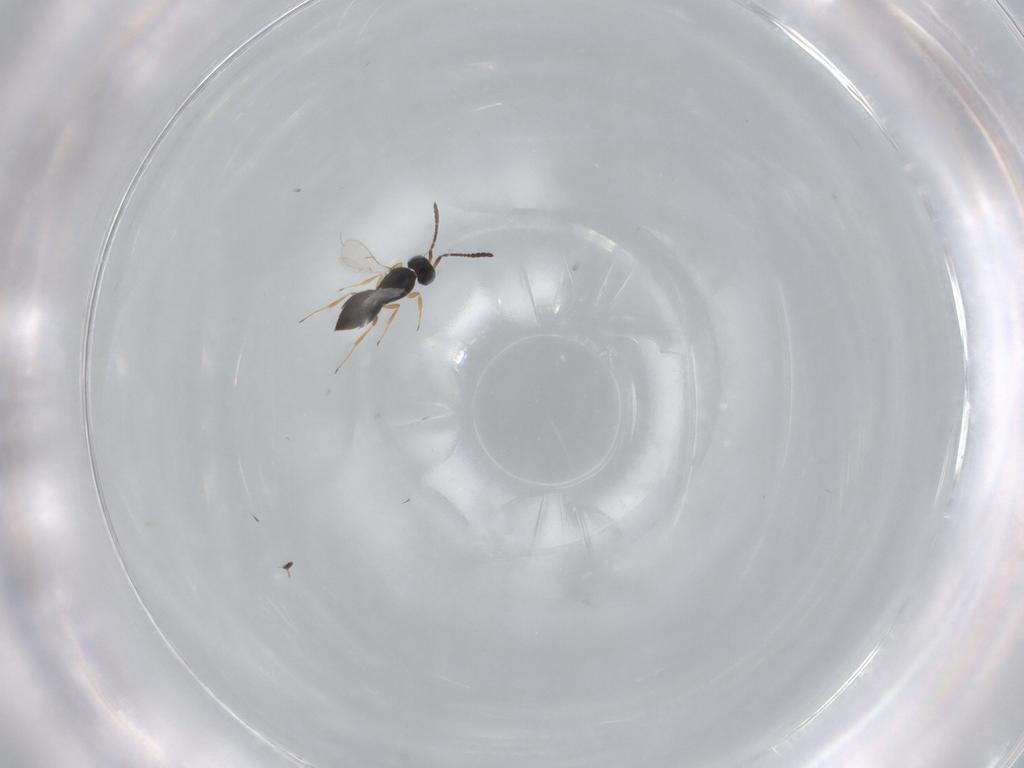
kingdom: Animalia
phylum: Arthropoda
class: Insecta
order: Hymenoptera
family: Scelionidae
